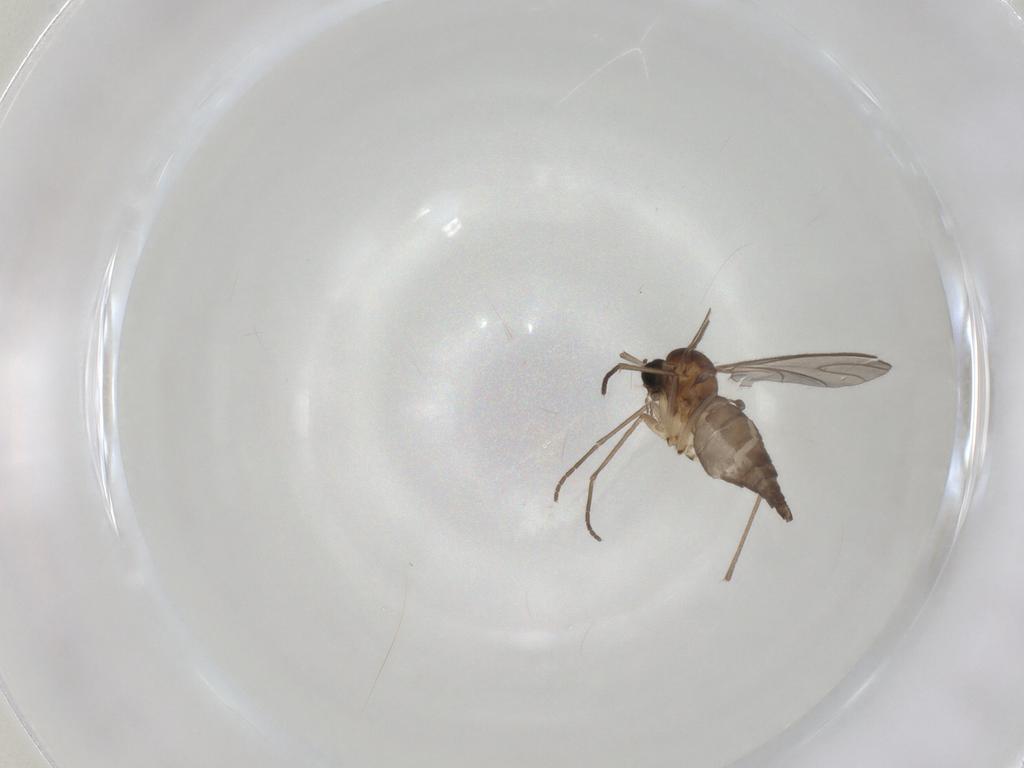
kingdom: Animalia
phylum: Arthropoda
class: Insecta
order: Diptera
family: Sciaridae
